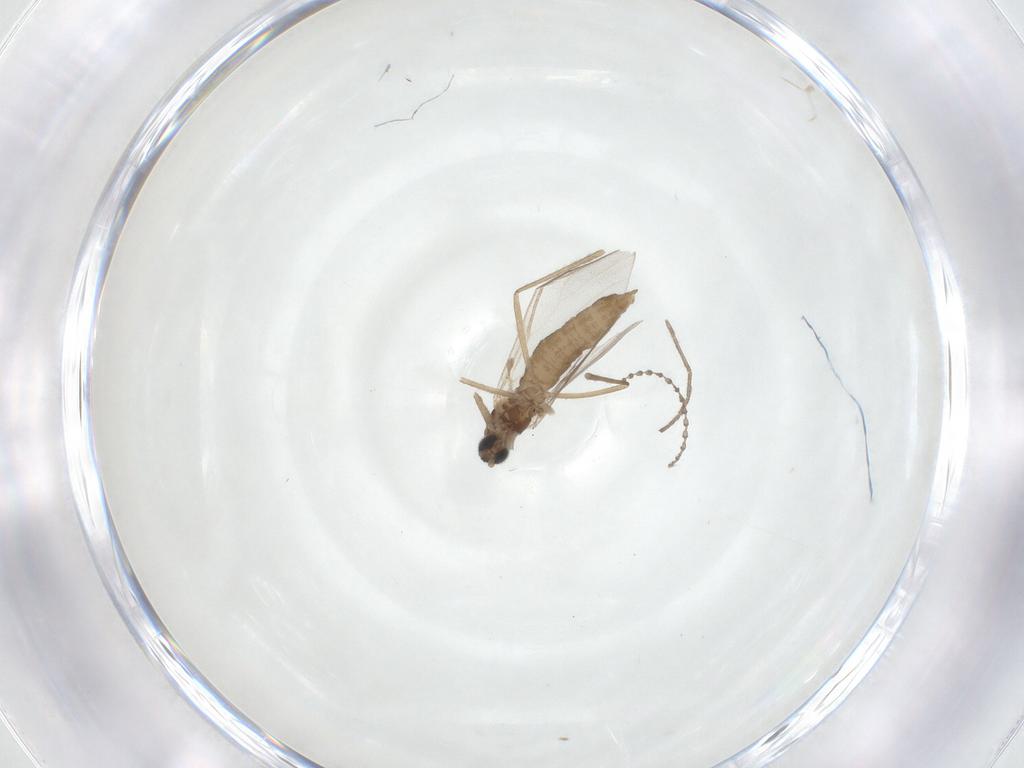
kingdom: Animalia
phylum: Arthropoda
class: Insecta
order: Diptera
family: Cecidomyiidae
